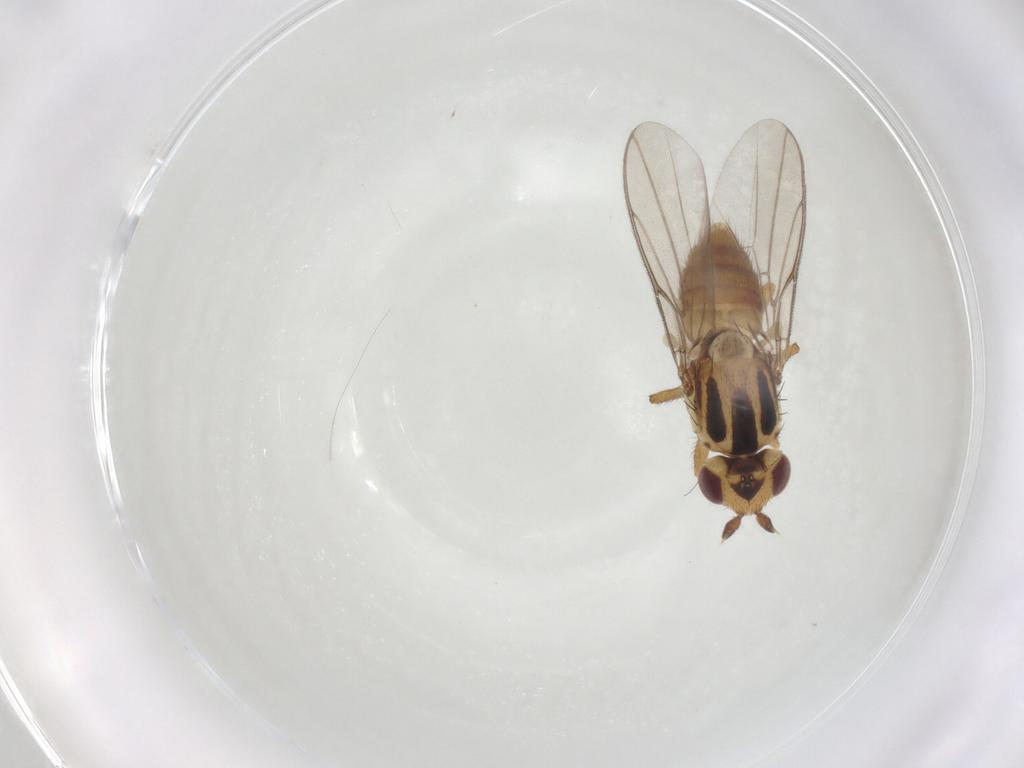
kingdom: Animalia
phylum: Arthropoda
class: Insecta
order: Diptera
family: Chloropidae
